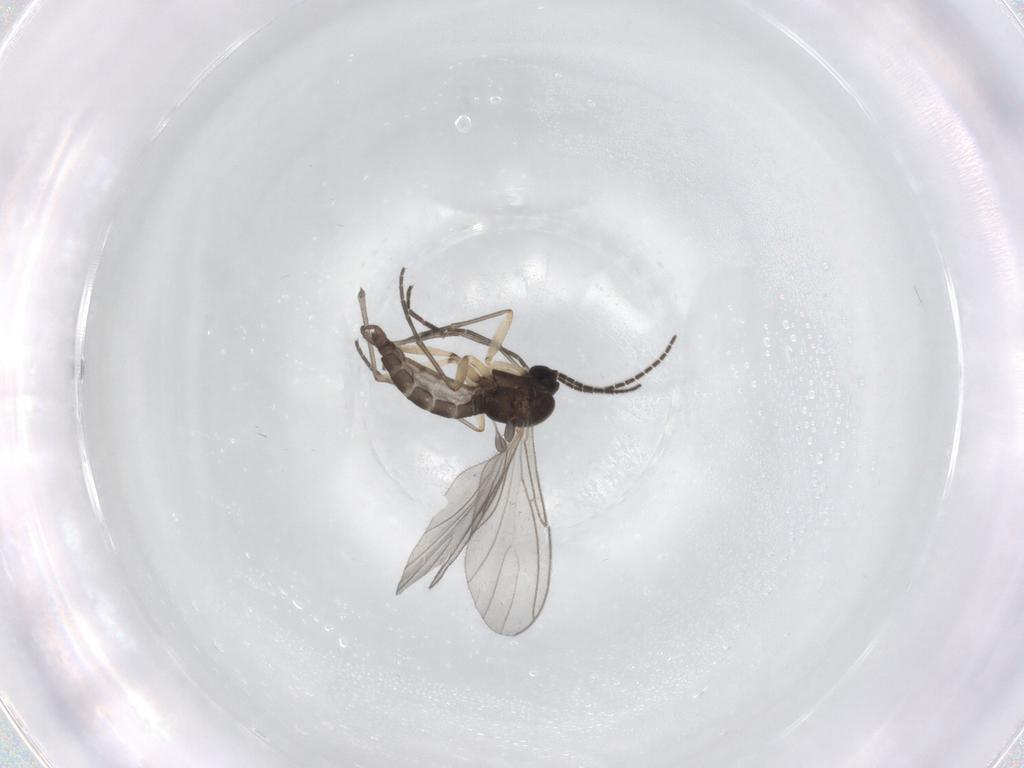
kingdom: Animalia
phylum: Arthropoda
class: Insecta
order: Diptera
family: Sciaridae
